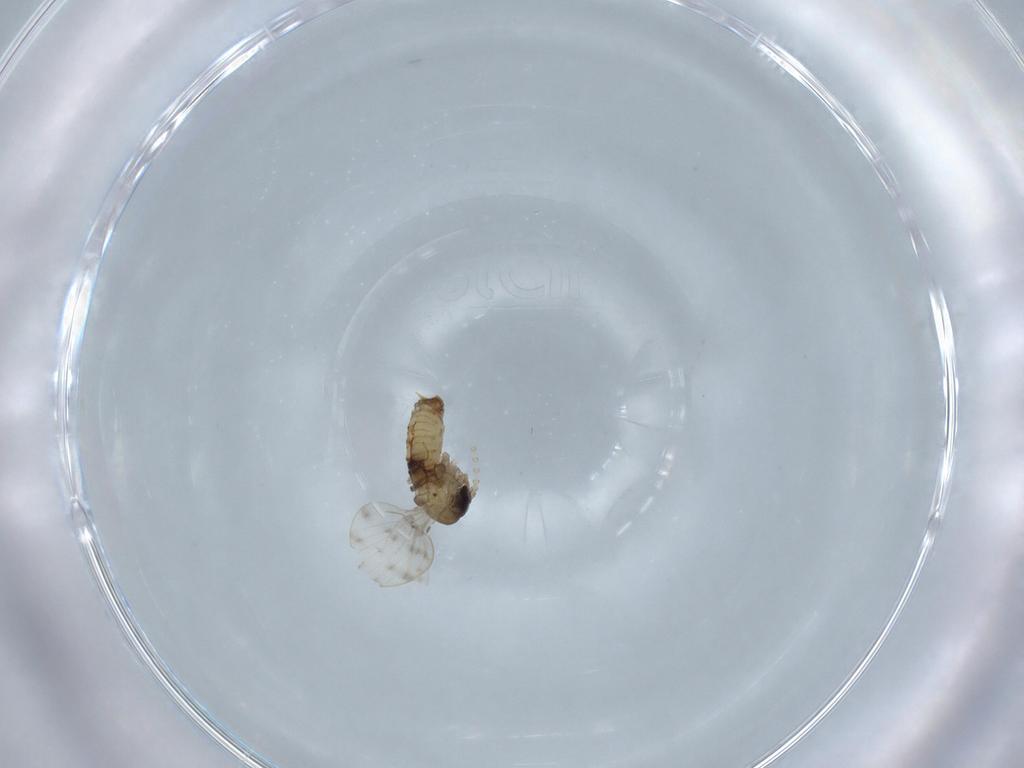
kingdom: Animalia
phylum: Arthropoda
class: Insecta
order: Diptera
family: Psychodidae
